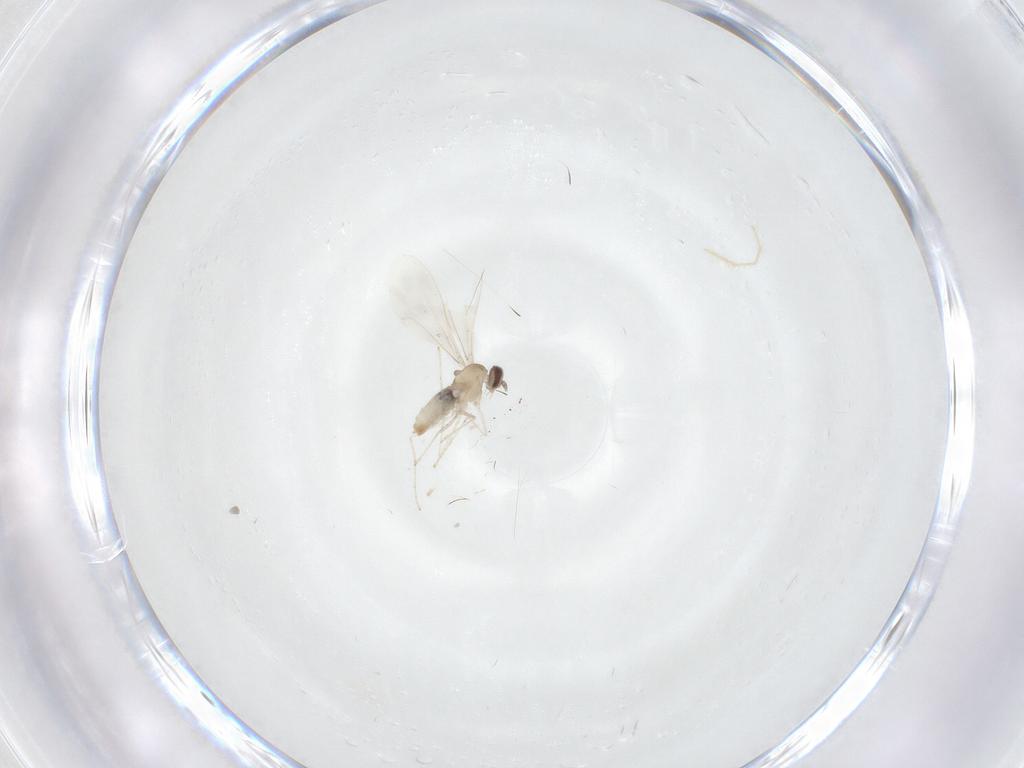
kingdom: Animalia
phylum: Arthropoda
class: Insecta
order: Diptera
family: Cecidomyiidae
